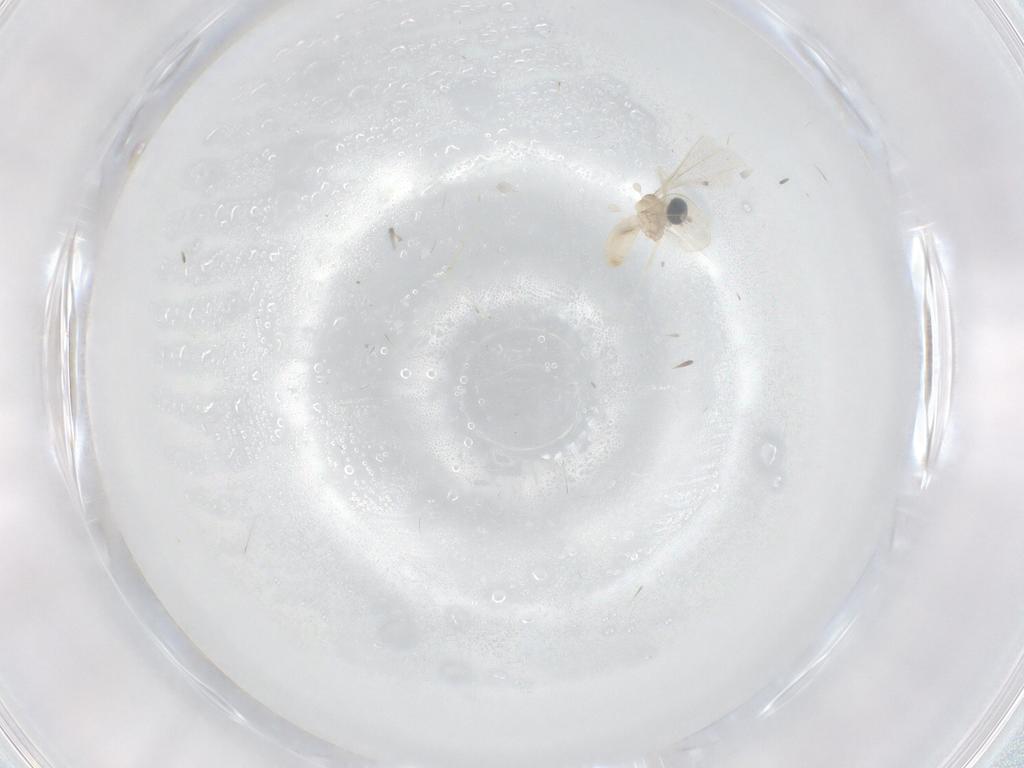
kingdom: Animalia
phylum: Arthropoda
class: Insecta
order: Diptera
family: Cecidomyiidae
